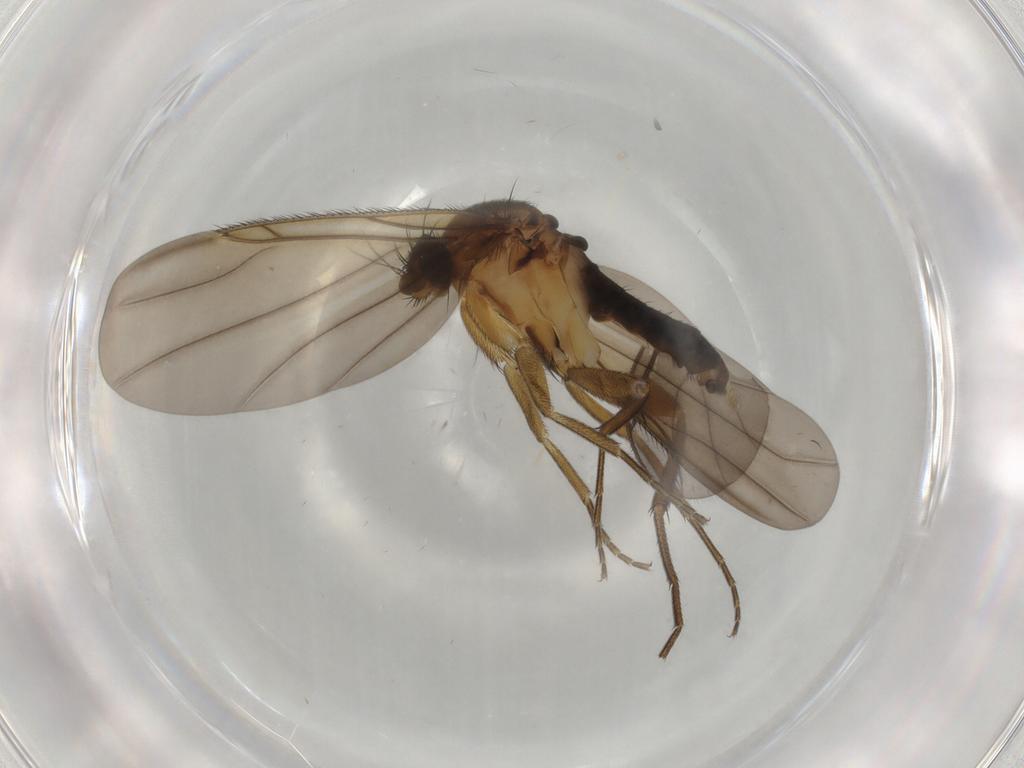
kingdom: Animalia
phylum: Arthropoda
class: Insecta
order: Diptera
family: Phoridae
